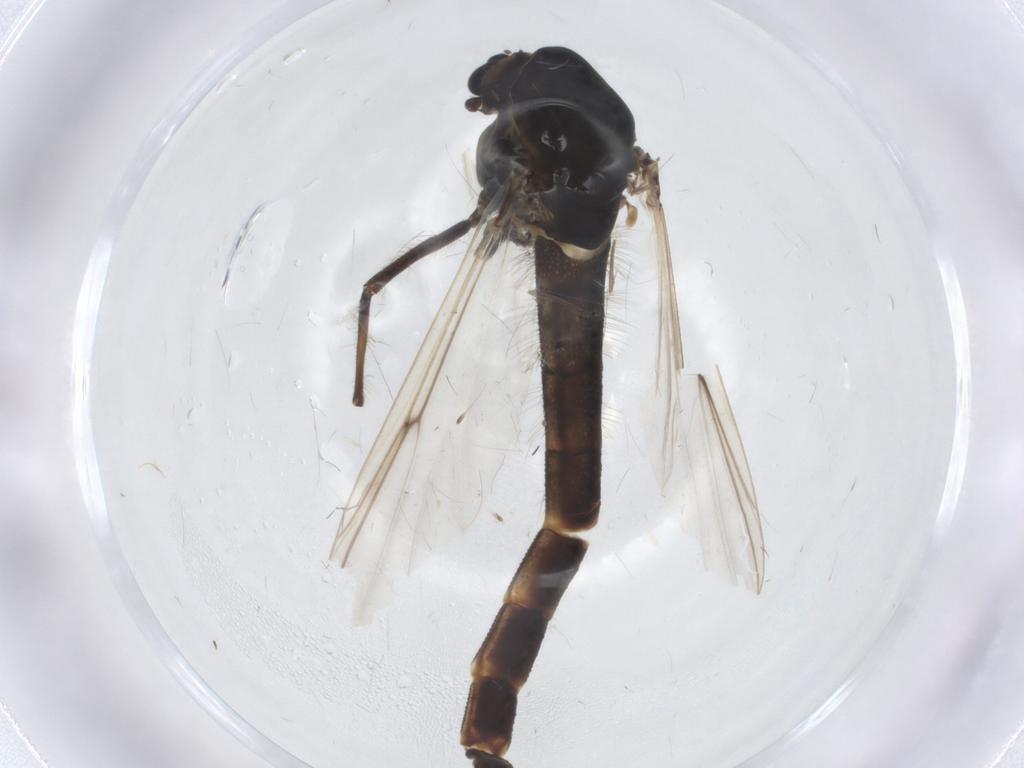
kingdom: Animalia
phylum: Arthropoda
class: Insecta
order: Diptera
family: Chironomidae
